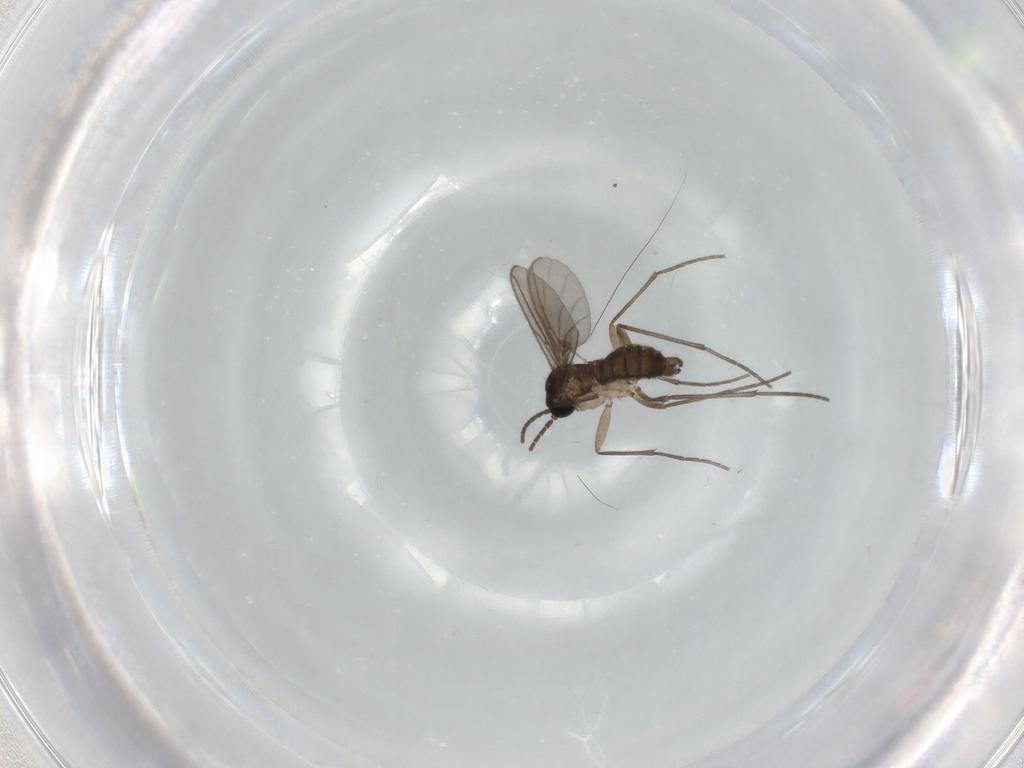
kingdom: Animalia
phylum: Arthropoda
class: Insecta
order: Diptera
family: Sciaridae
